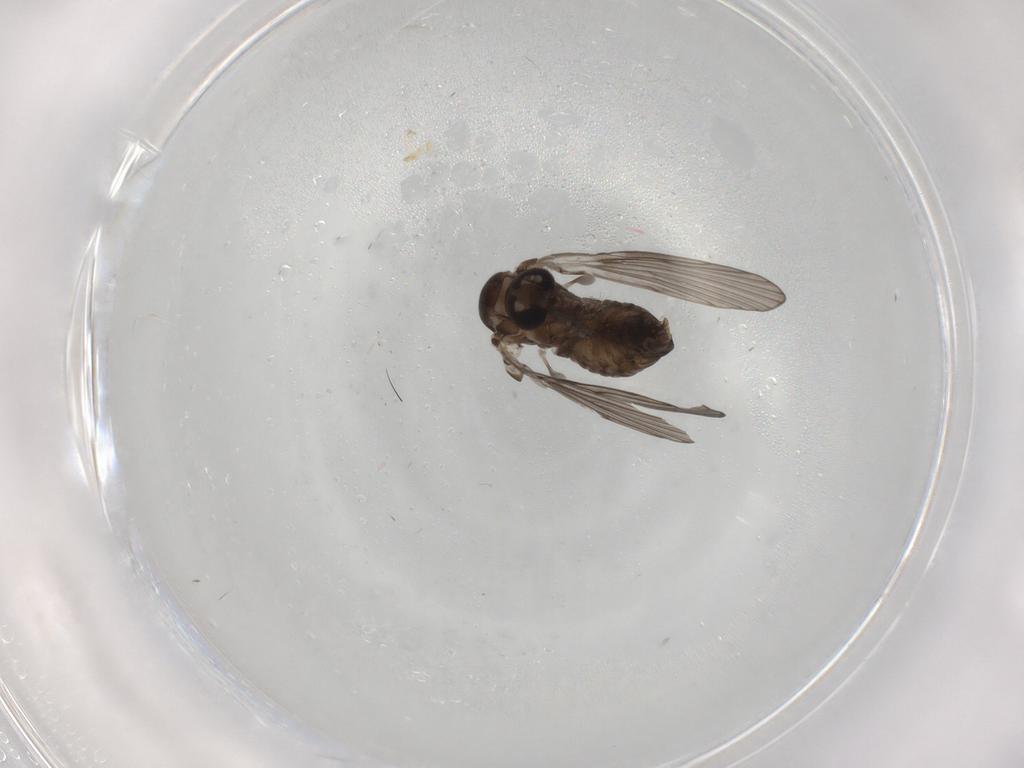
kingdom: Animalia
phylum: Arthropoda
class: Insecta
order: Diptera
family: Psychodidae
